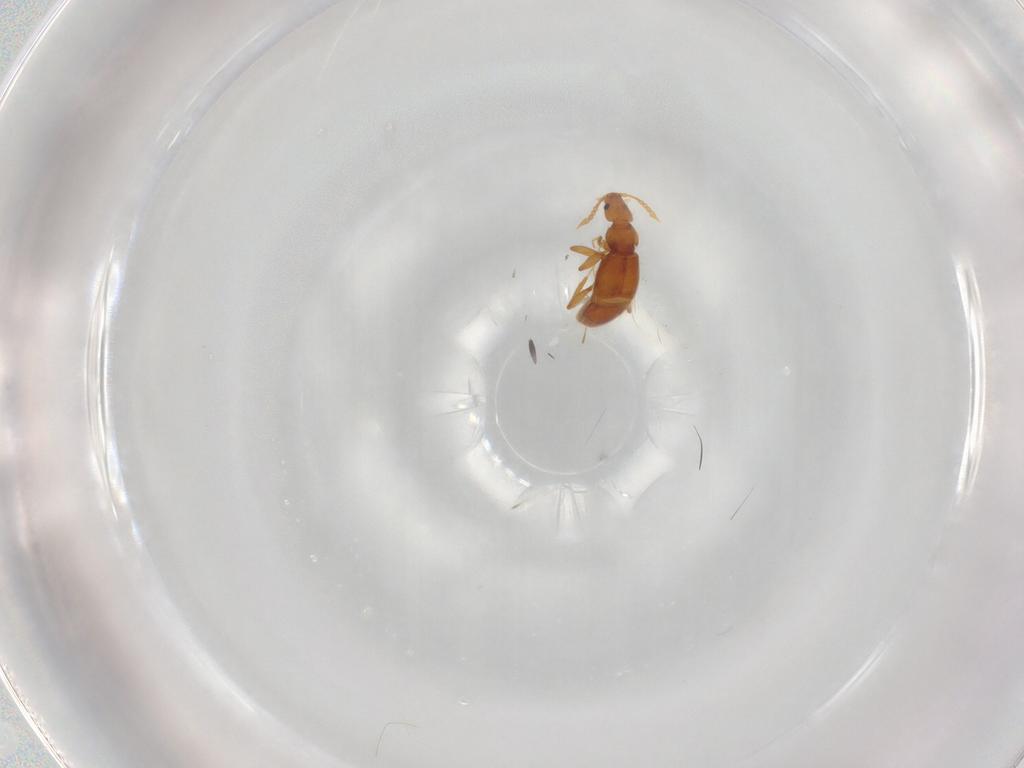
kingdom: Animalia
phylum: Arthropoda
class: Insecta
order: Coleoptera
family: Staphylinidae
